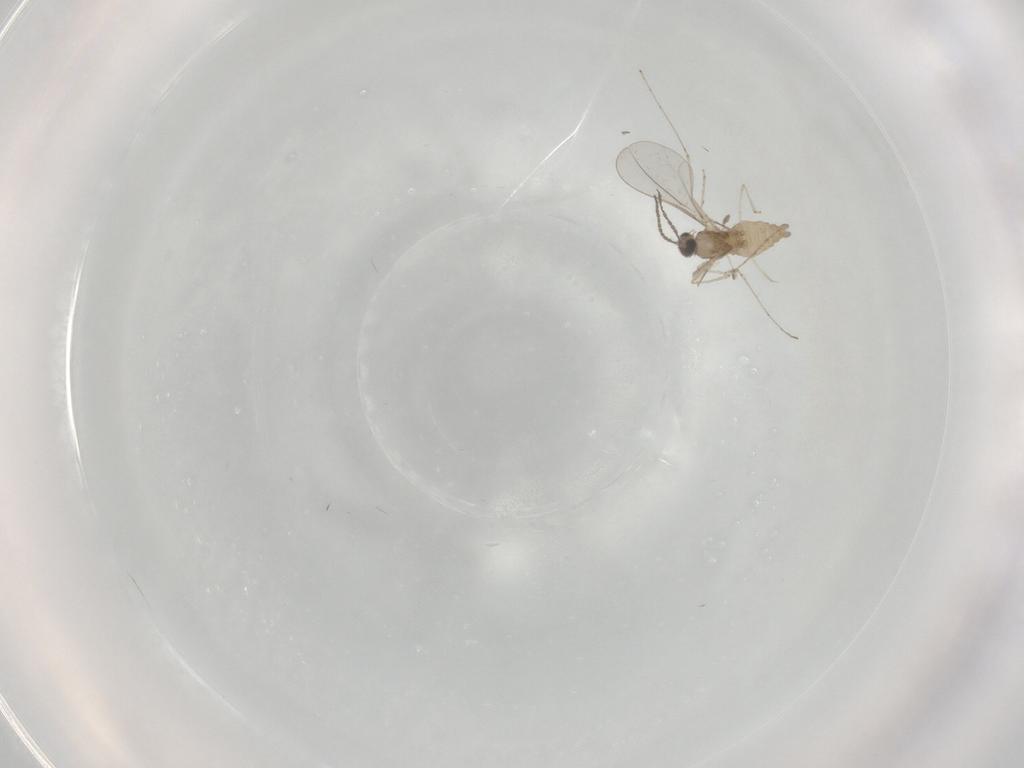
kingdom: Animalia
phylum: Arthropoda
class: Insecta
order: Diptera
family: Cecidomyiidae
